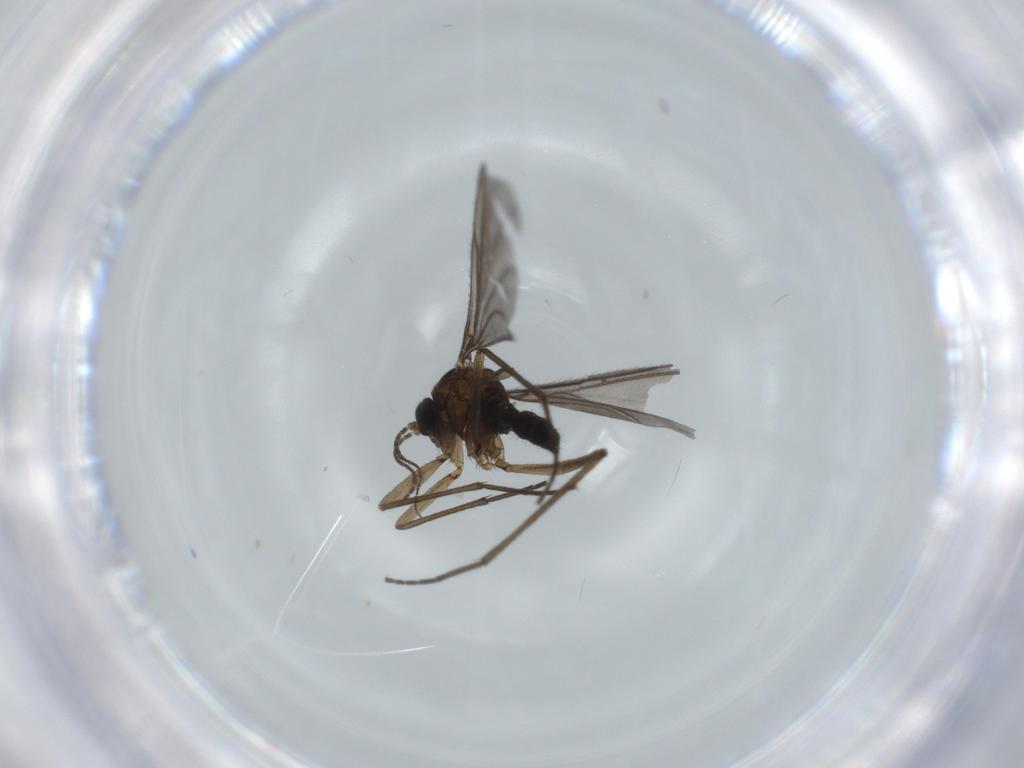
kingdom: Animalia
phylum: Arthropoda
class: Insecta
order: Diptera
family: Sciaridae
